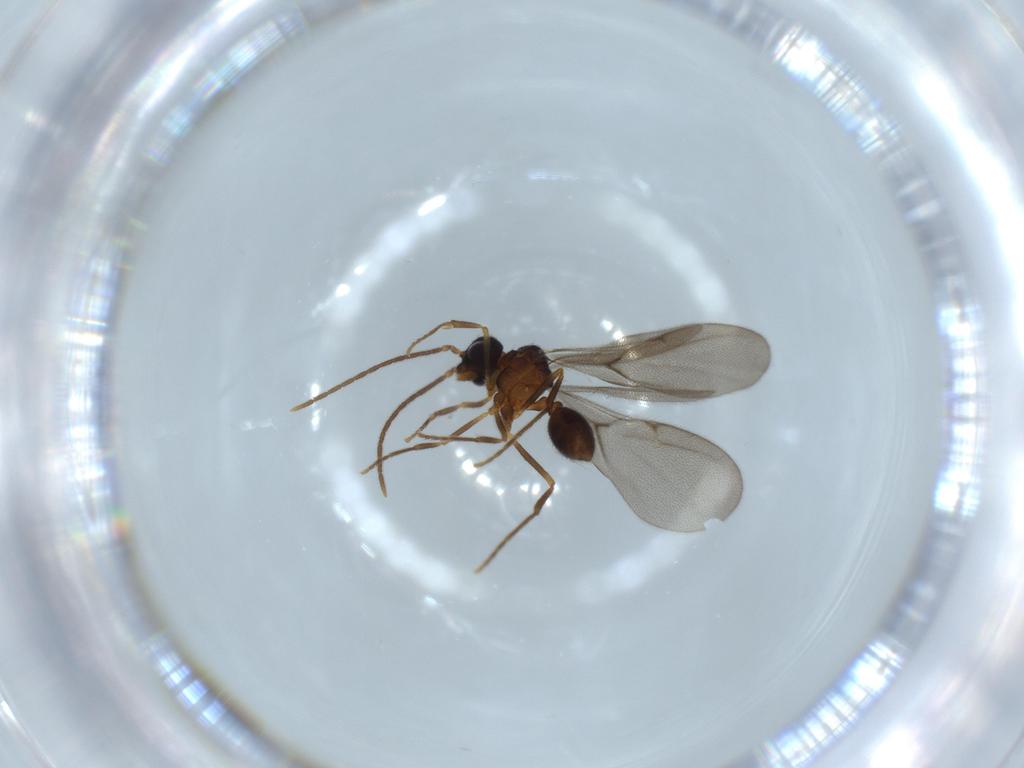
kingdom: Animalia
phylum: Arthropoda
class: Insecta
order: Hymenoptera
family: Formicidae
